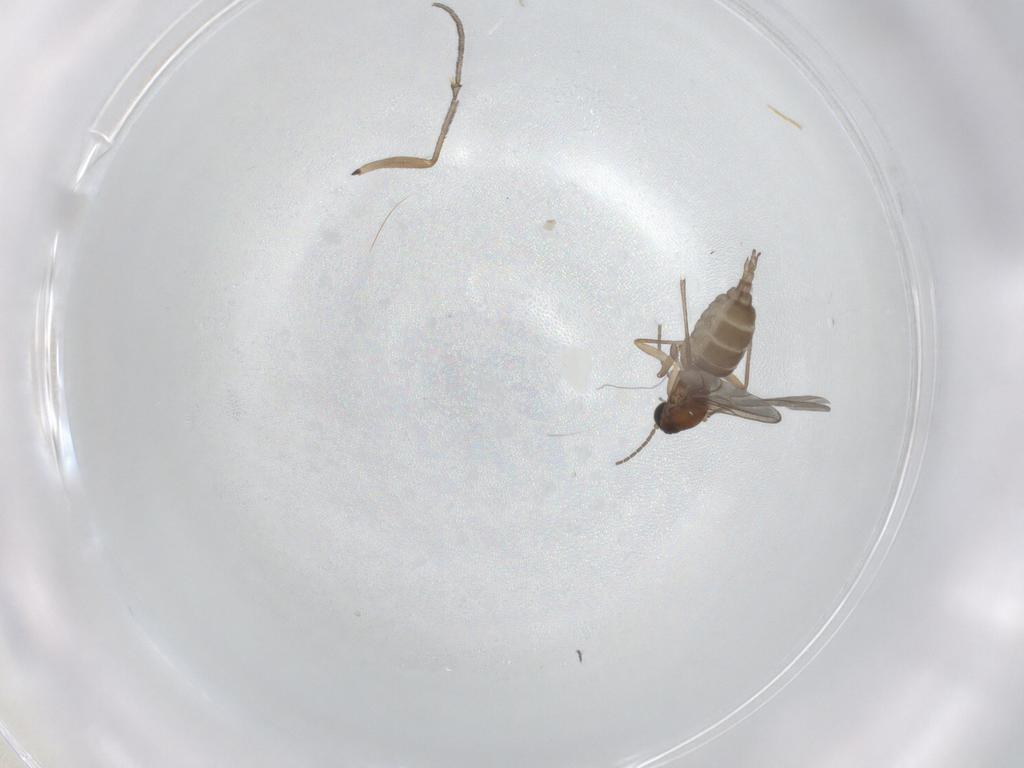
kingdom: Animalia
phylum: Arthropoda
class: Insecta
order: Diptera
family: Sciaridae
